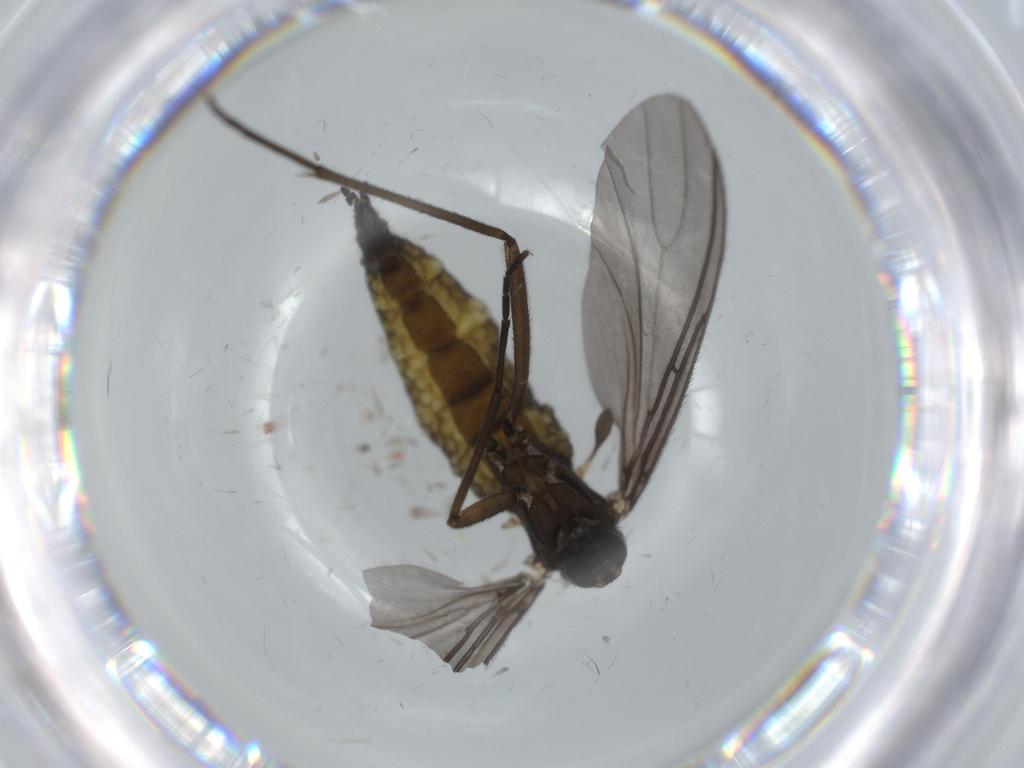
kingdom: Animalia
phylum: Arthropoda
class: Insecta
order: Diptera
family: Sciaridae
